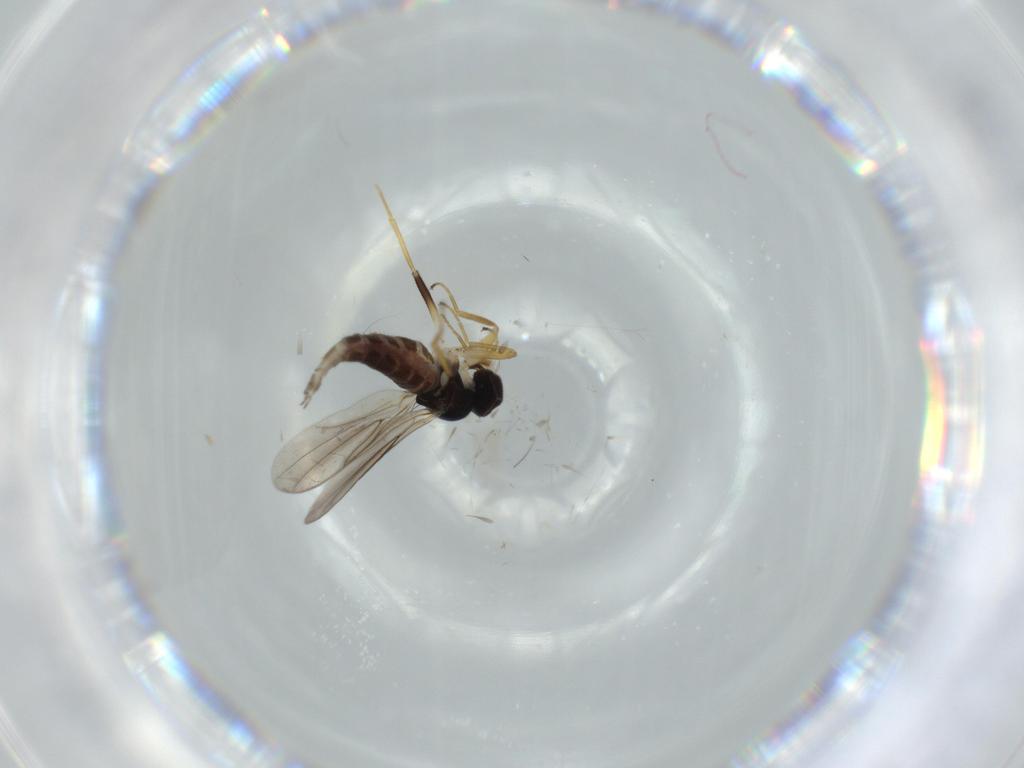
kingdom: Animalia
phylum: Arthropoda
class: Insecta
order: Diptera
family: Hybotidae
